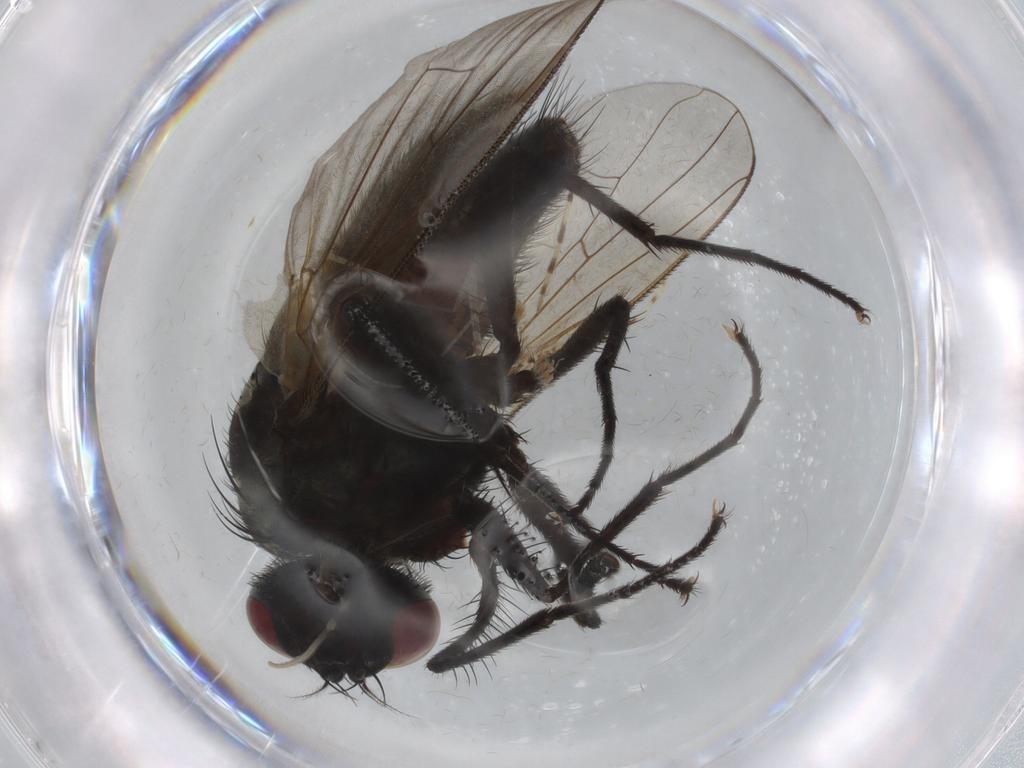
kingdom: Animalia
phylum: Arthropoda
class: Insecta
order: Diptera
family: Muscidae
